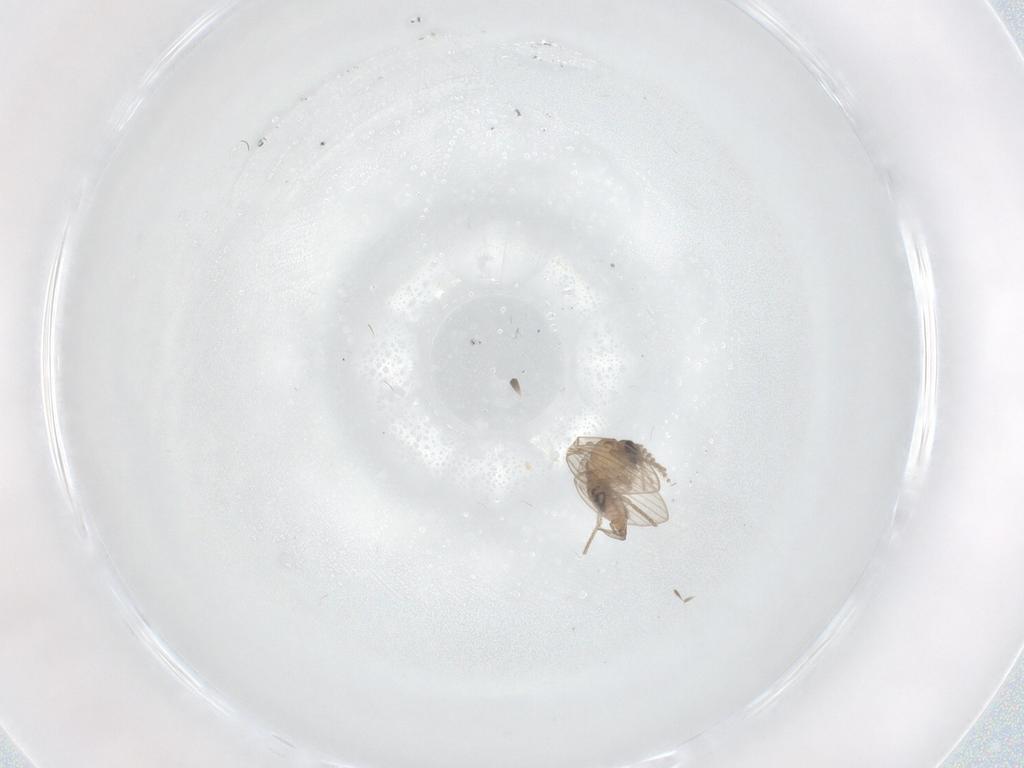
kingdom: Animalia
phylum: Arthropoda
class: Insecta
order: Diptera
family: Psychodidae
